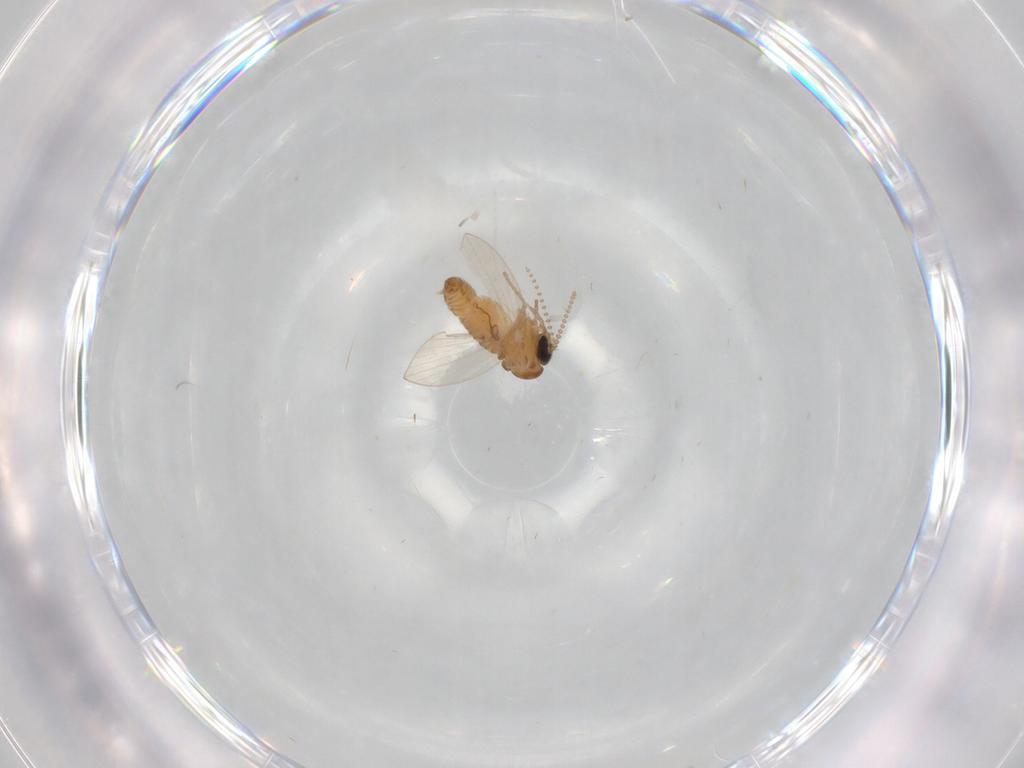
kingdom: Animalia
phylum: Arthropoda
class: Insecta
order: Diptera
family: Psychodidae
